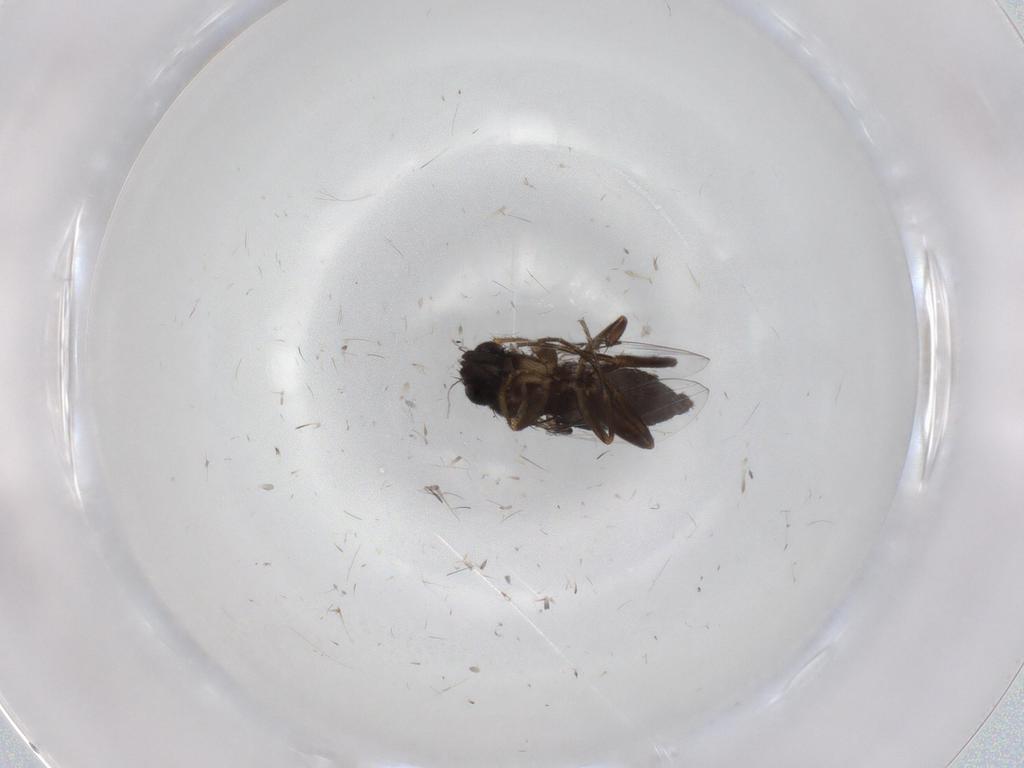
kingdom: Animalia
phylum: Arthropoda
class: Insecta
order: Diptera
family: Phoridae
